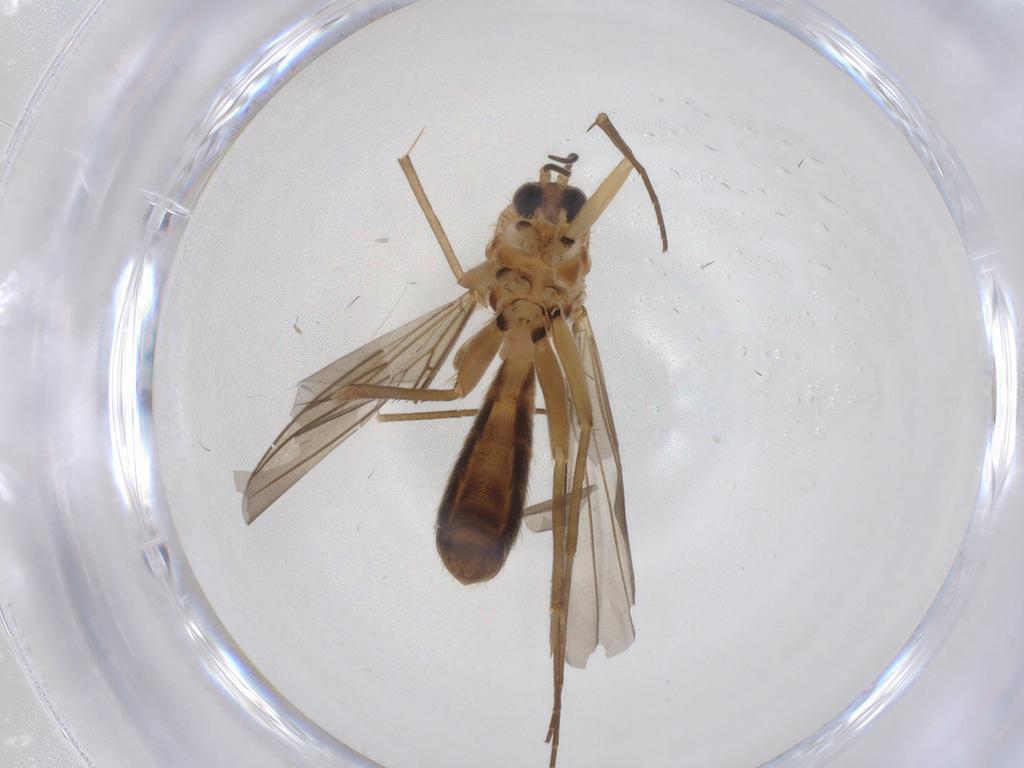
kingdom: Animalia
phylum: Arthropoda
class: Insecta
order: Diptera
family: Mycetophilidae
